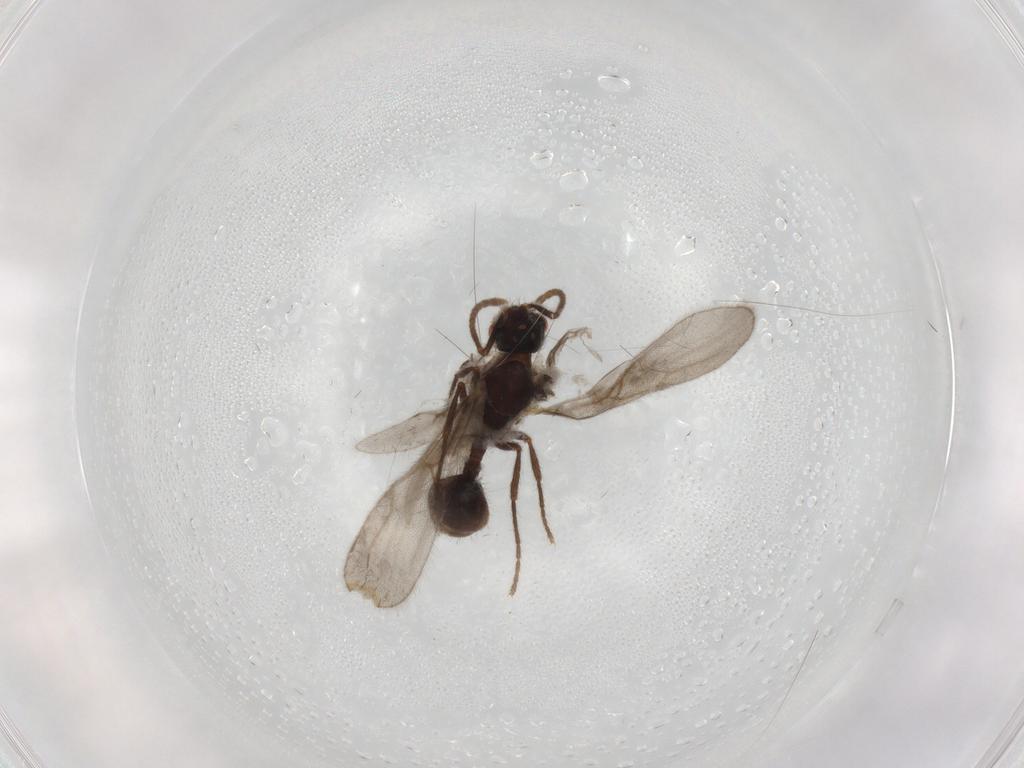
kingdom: Animalia
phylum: Arthropoda
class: Insecta
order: Hymenoptera
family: Formicidae
